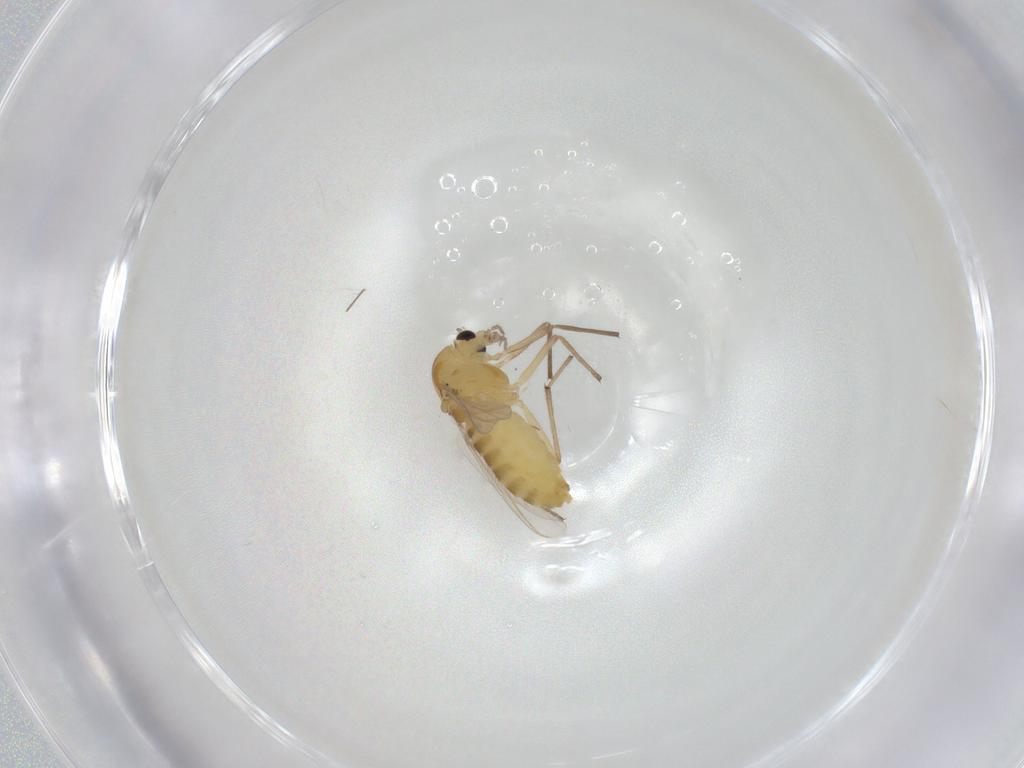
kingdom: Animalia
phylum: Arthropoda
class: Insecta
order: Diptera
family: Chironomidae
